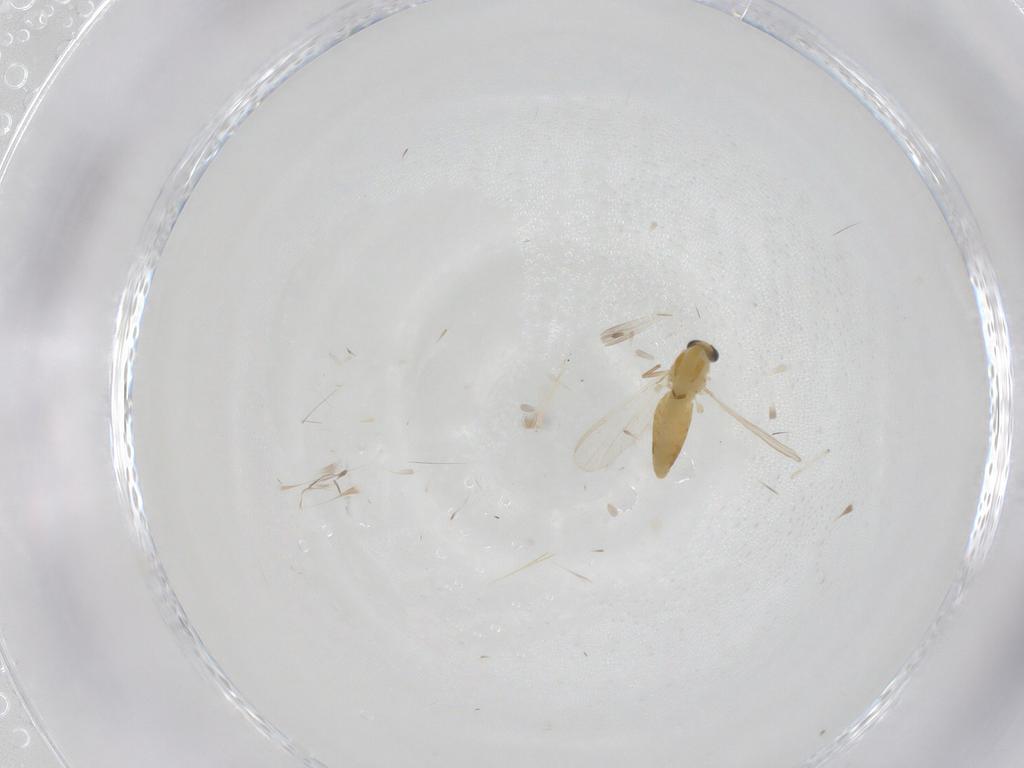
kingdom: Animalia
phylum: Arthropoda
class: Insecta
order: Diptera
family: Chironomidae
